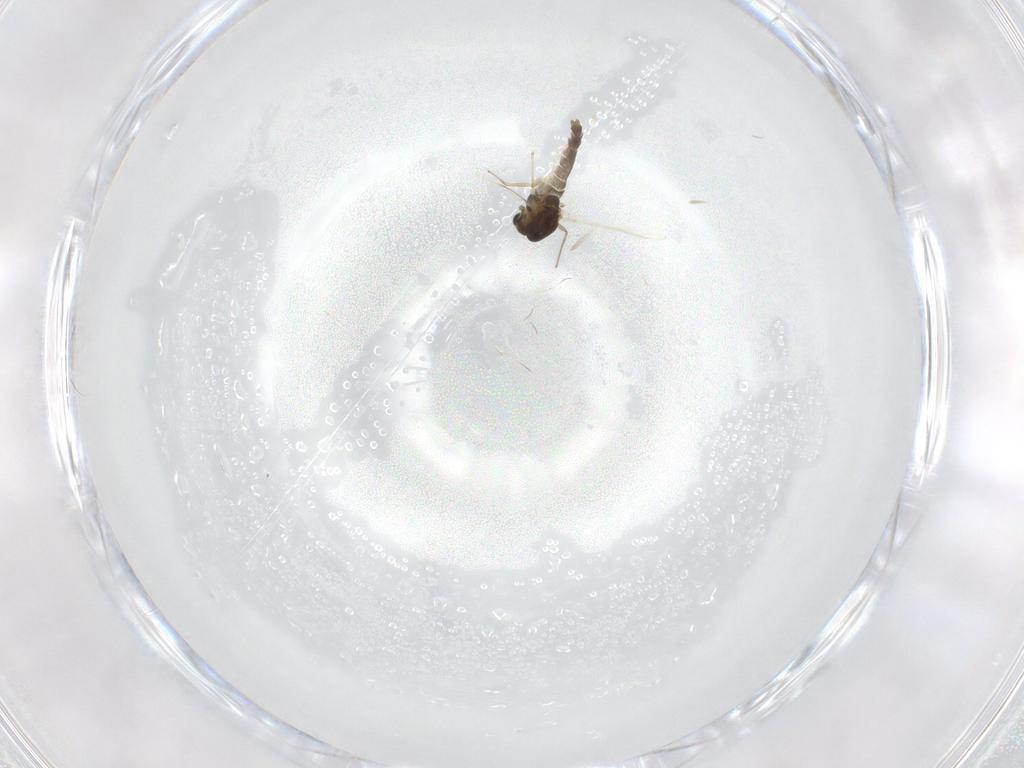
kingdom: Animalia
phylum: Arthropoda
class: Insecta
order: Diptera
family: Chironomidae
